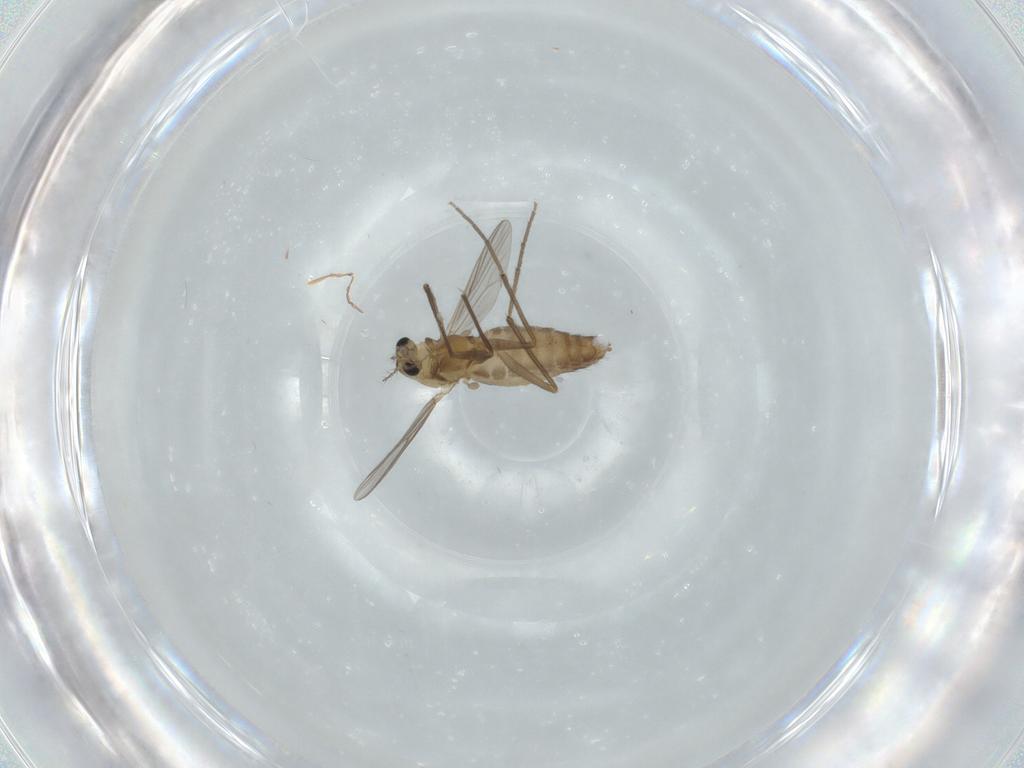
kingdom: Animalia
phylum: Arthropoda
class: Insecta
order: Diptera
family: Chironomidae
